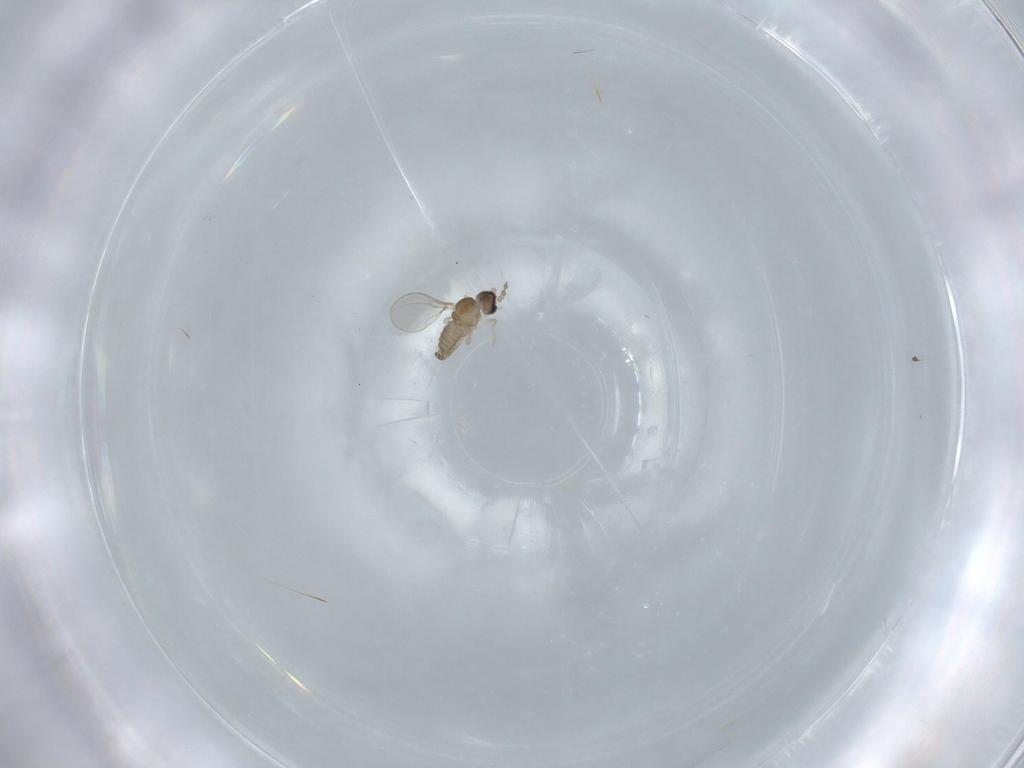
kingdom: Animalia
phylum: Arthropoda
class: Insecta
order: Diptera
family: Cecidomyiidae
